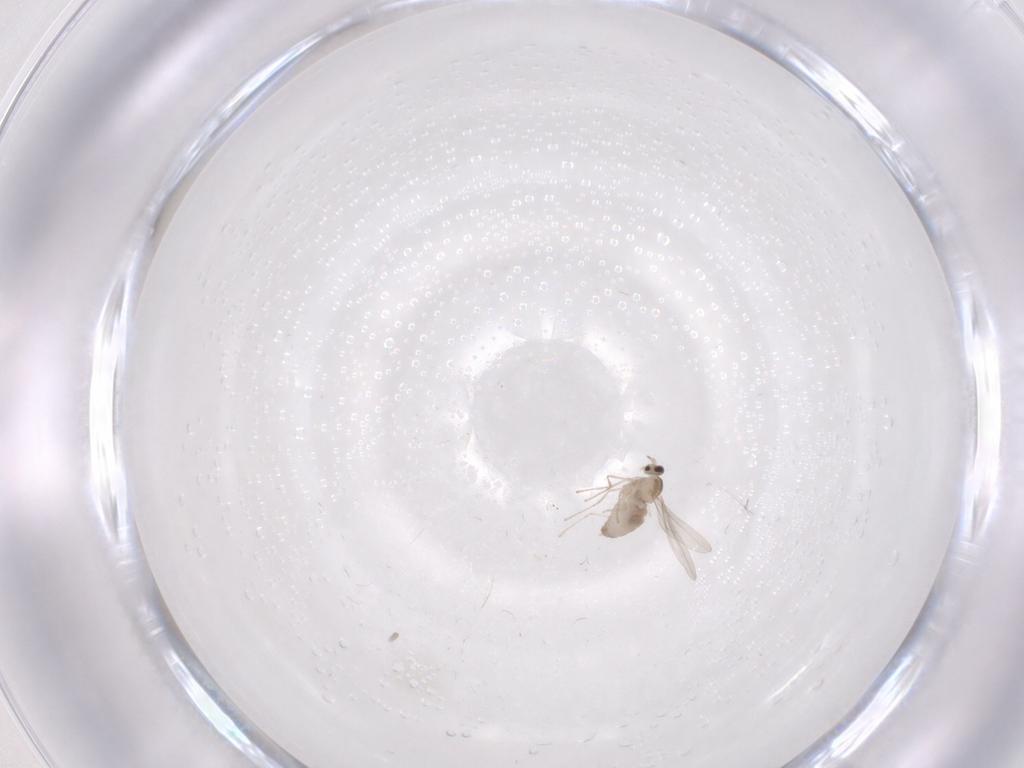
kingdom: Animalia
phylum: Arthropoda
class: Insecta
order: Diptera
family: Cecidomyiidae
